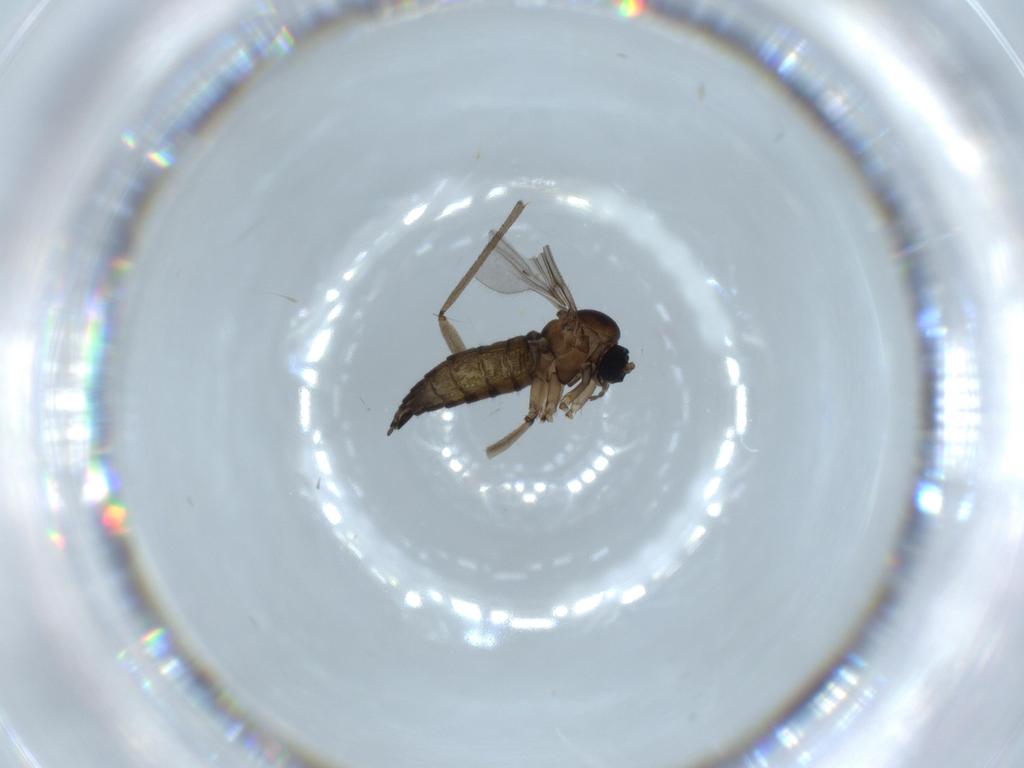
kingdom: Animalia
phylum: Arthropoda
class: Insecta
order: Diptera
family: Sciaridae
